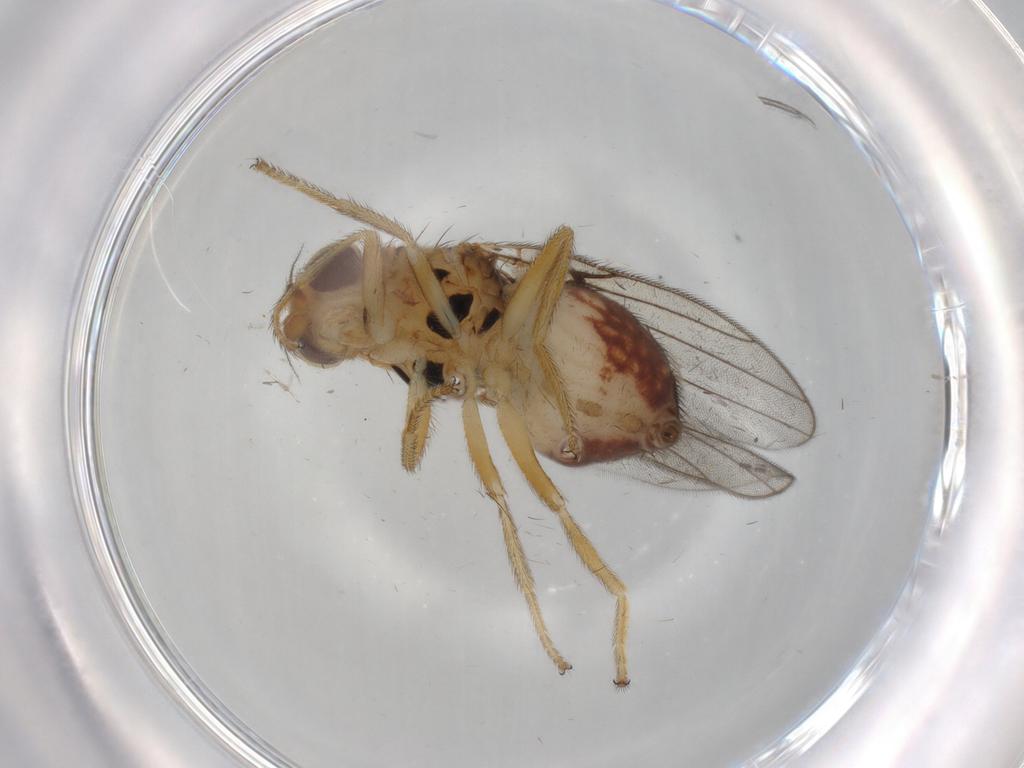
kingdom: Animalia
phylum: Arthropoda
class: Insecta
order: Diptera
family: Chloropidae
